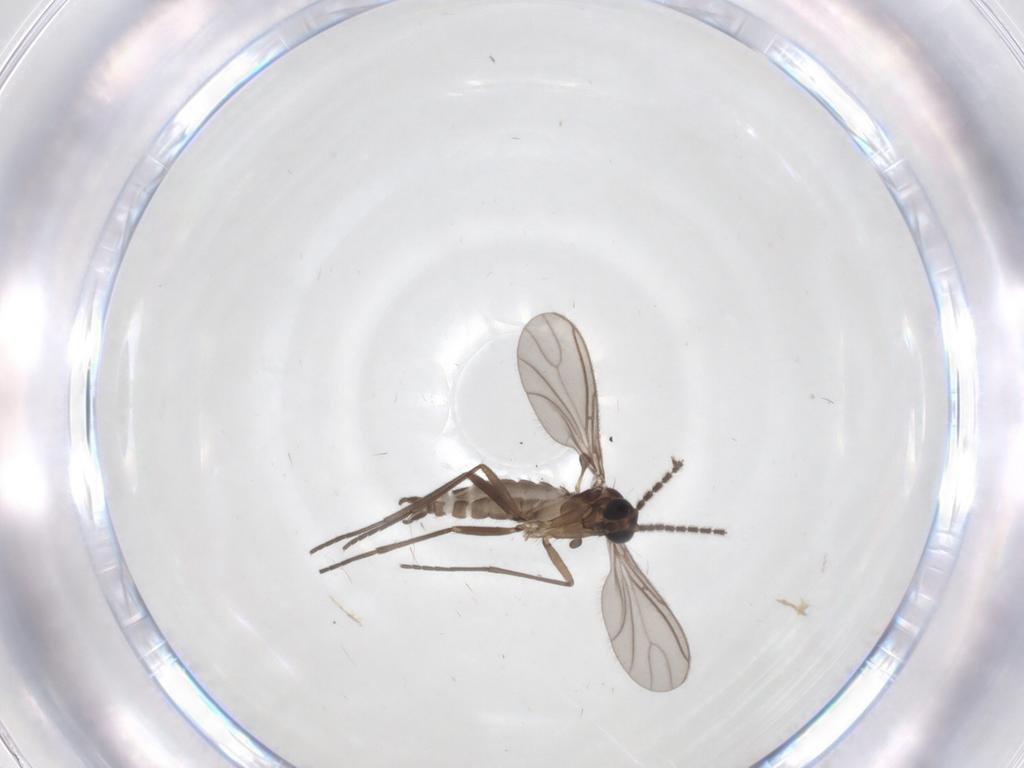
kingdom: Animalia
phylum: Arthropoda
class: Insecta
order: Diptera
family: Sciaridae
